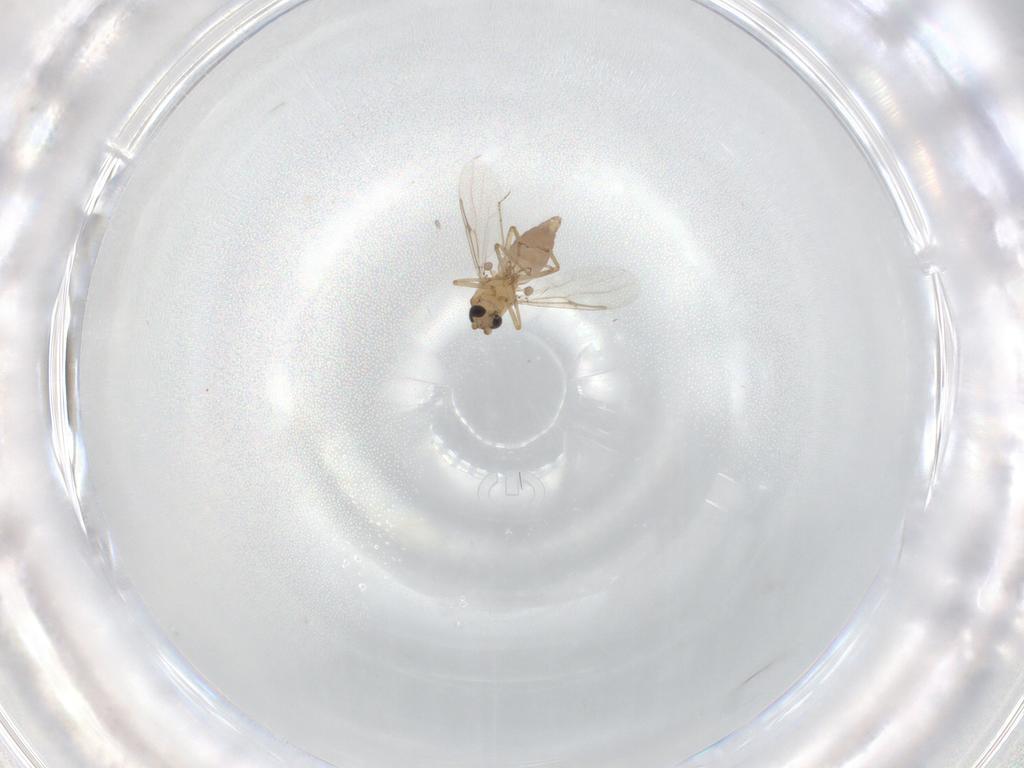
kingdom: Animalia
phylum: Arthropoda
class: Insecta
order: Diptera
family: Ceratopogonidae
